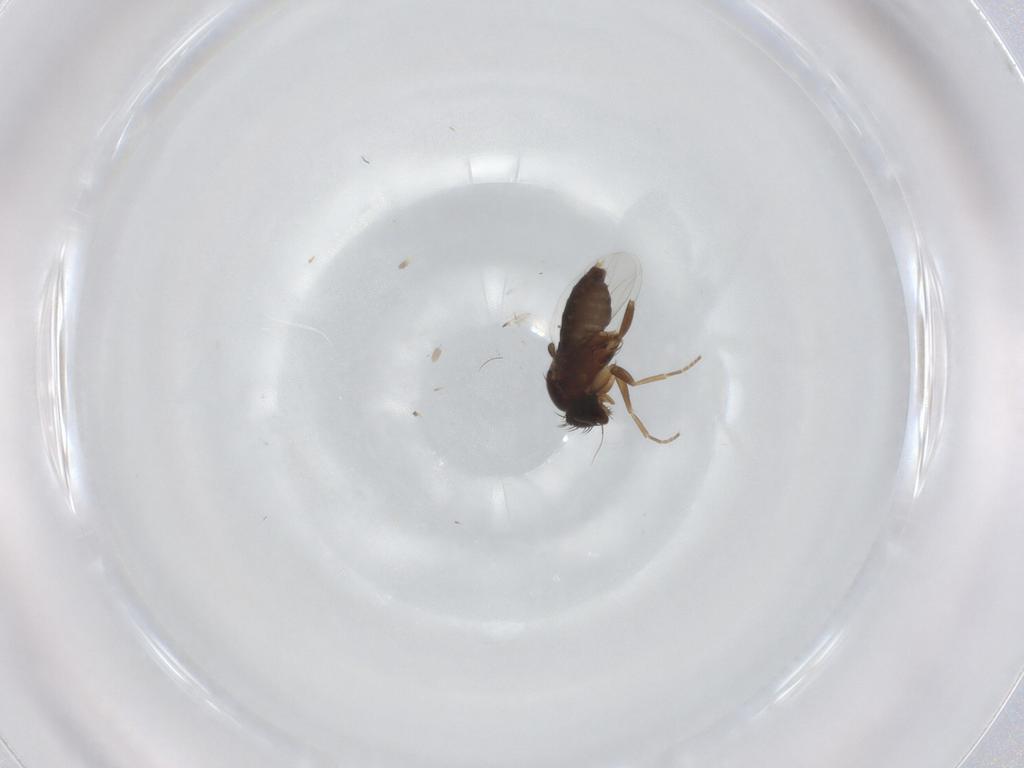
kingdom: Animalia
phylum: Arthropoda
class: Insecta
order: Diptera
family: Phoridae
